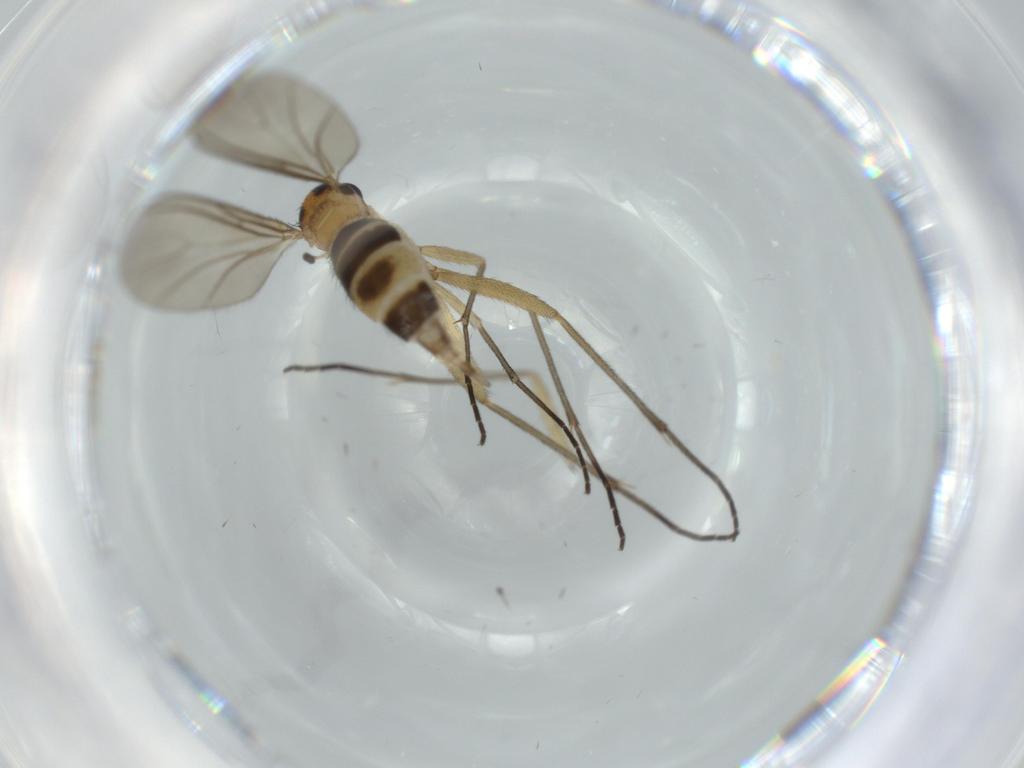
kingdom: Animalia
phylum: Arthropoda
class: Insecta
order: Diptera
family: Sciaridae
